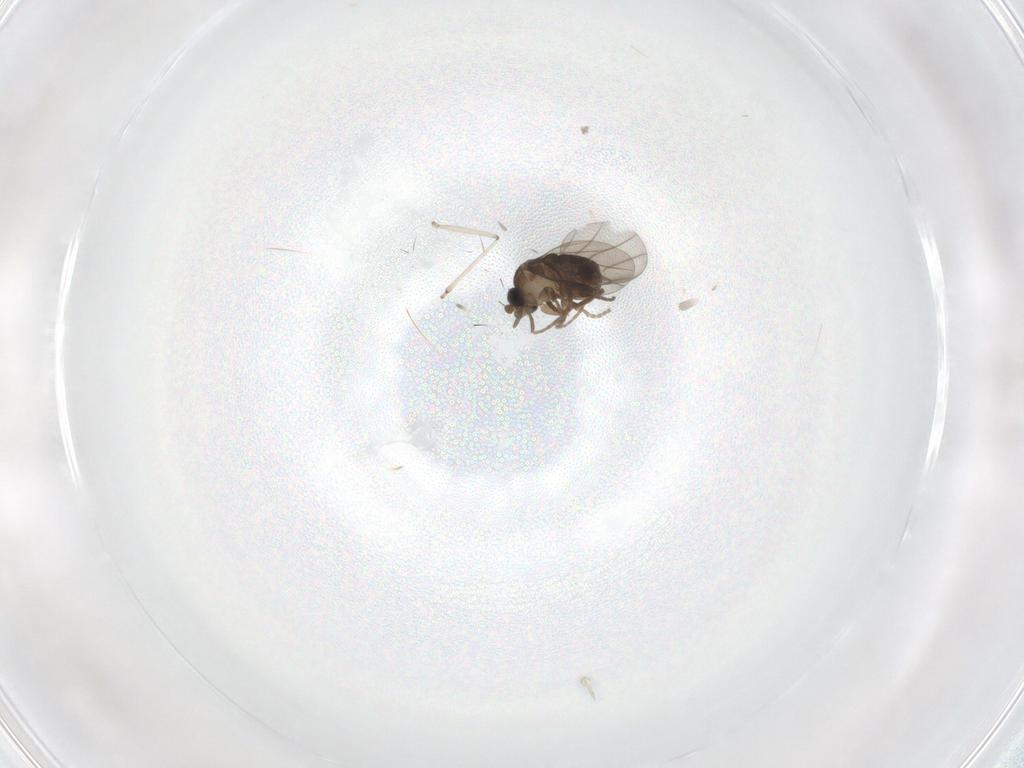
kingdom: Animalia
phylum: Arthropoda
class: Insecta
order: Diptera
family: Cecidomyiidae
